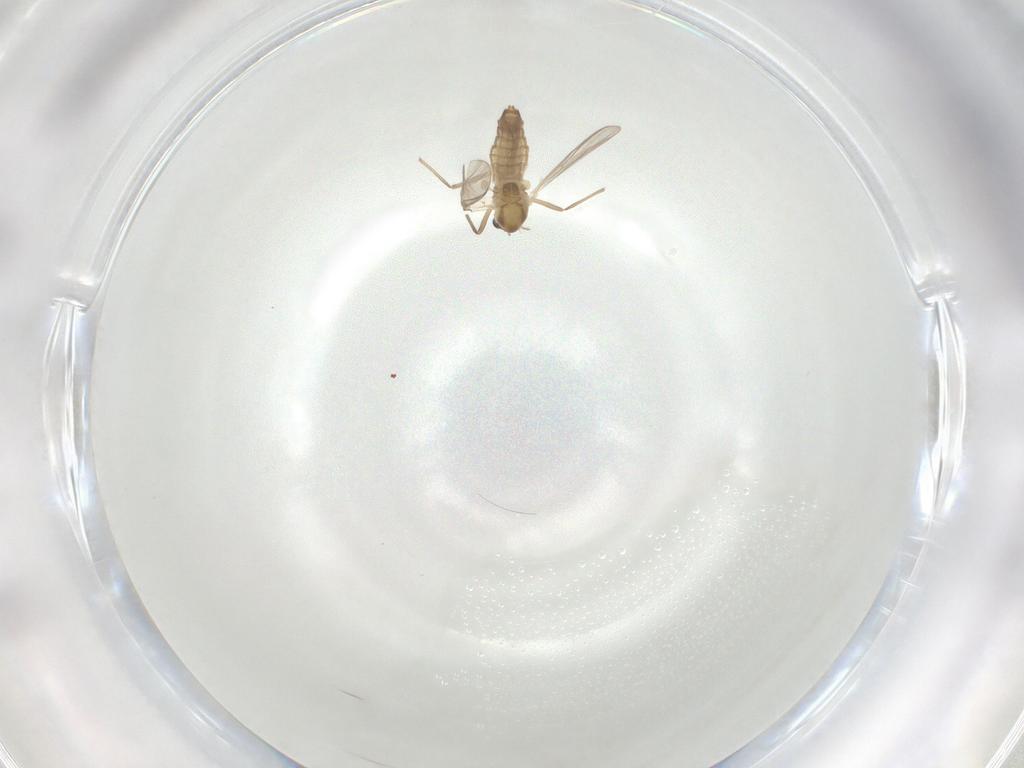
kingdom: Animalia
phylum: Arthropoda
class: Insecta
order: Diptera
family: Chironomidae
